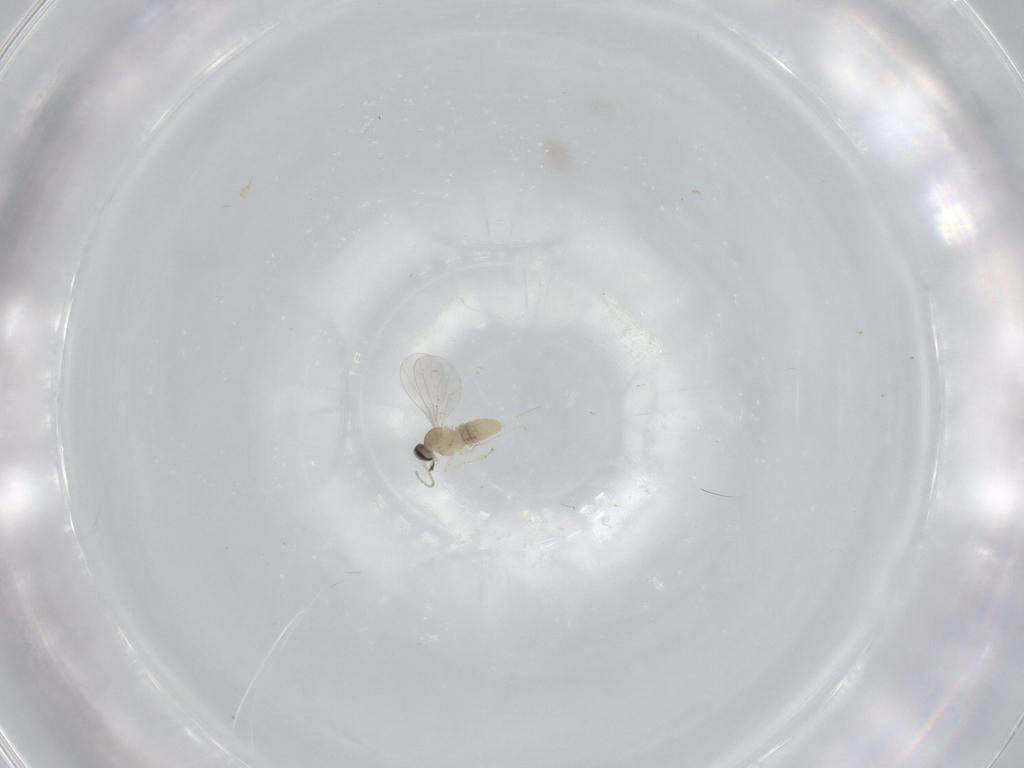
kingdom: Animalia
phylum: Arthropoda
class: Insecta
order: Diptera
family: Cecidomyiidae
